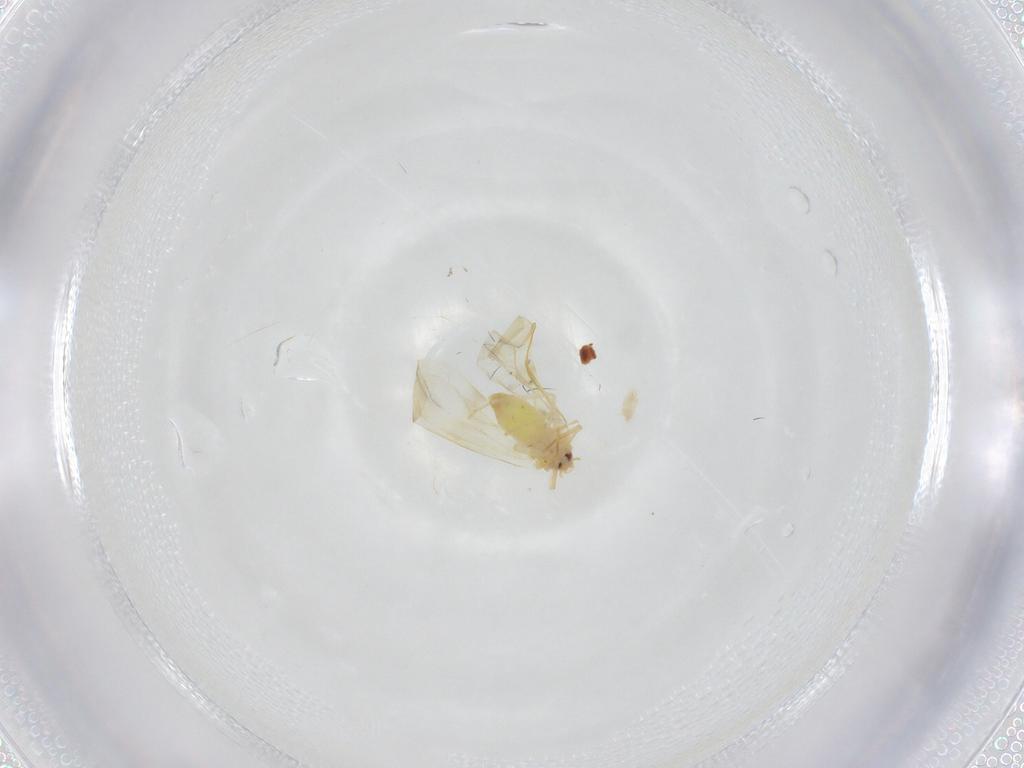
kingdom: Animalia
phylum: Arthropoda
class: Insecta
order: Hemiptera
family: Aleyrodidae
